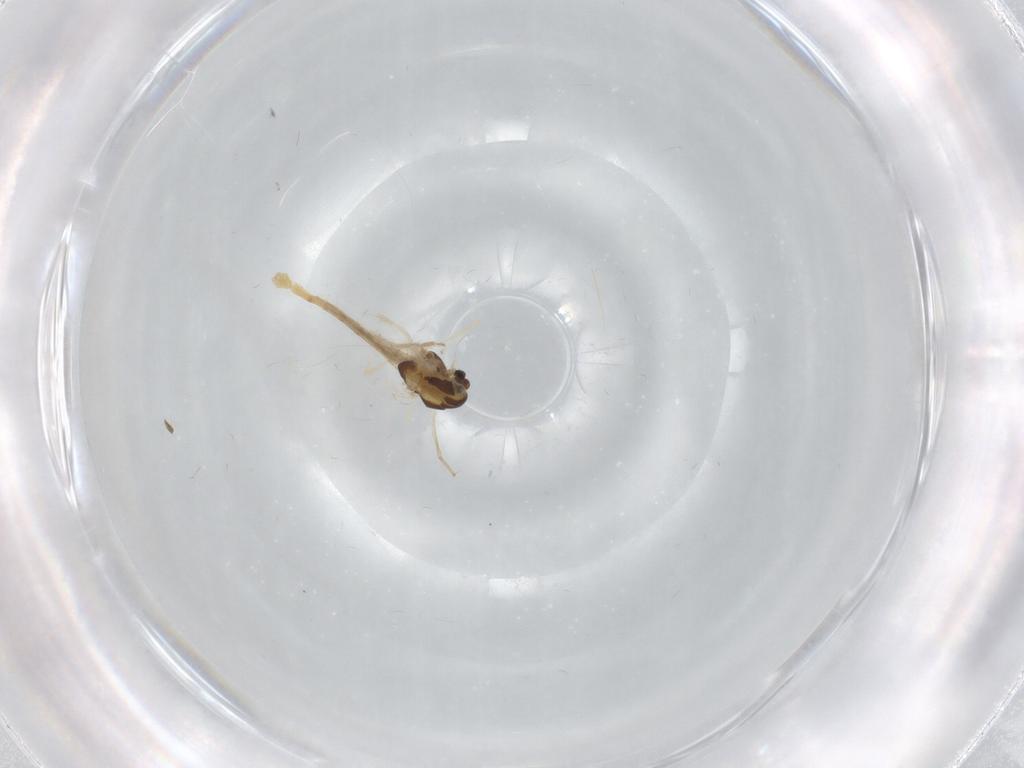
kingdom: Animalia
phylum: Arthropoda
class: Insecta
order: Diptera
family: Chironomidae
